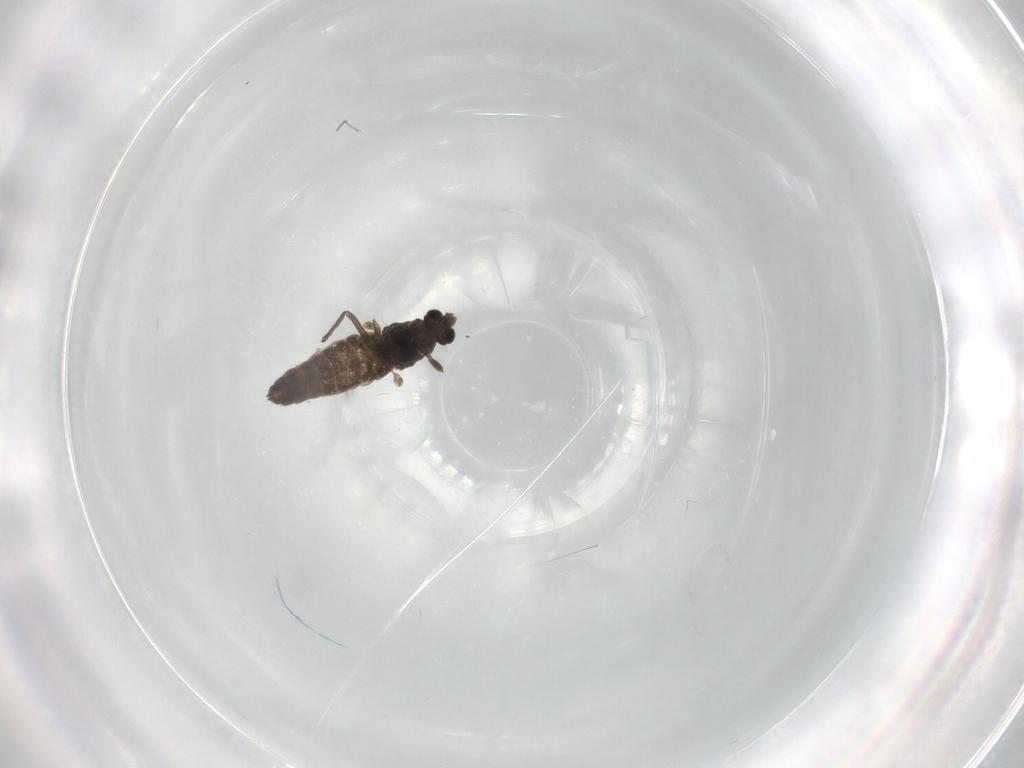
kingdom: Animalia
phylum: Arthropoda
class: Insecta
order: Diptera
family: Anthomyiidae
